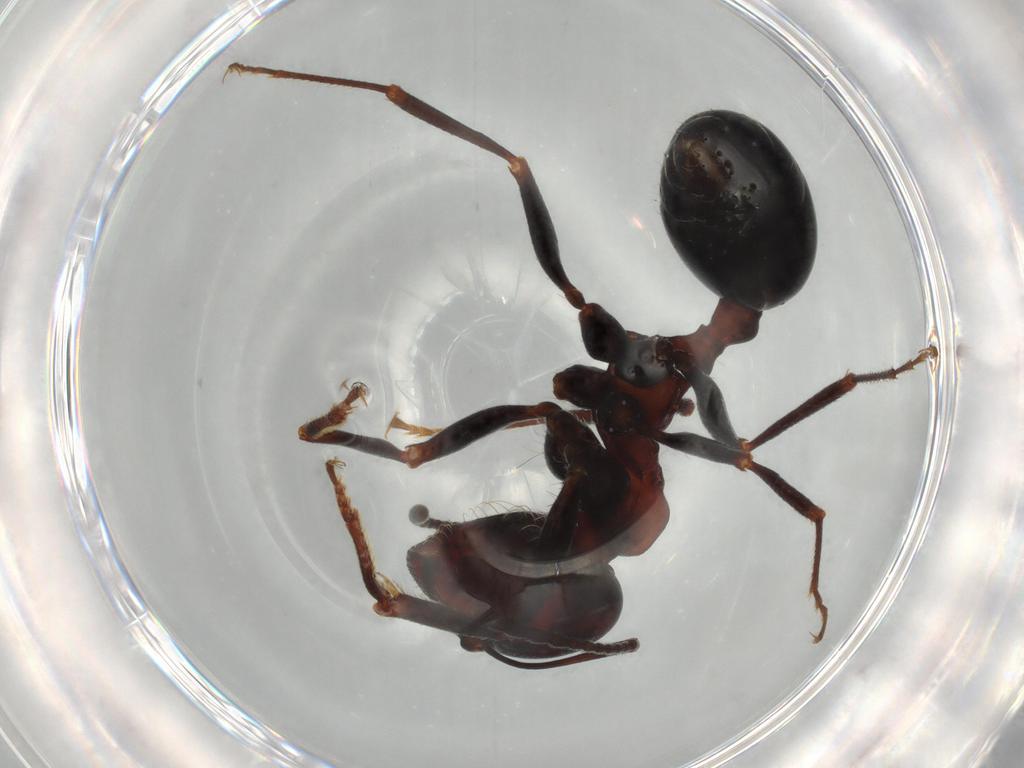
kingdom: Animalia
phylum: Arthropoda
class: Insecta
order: Hymenoptera
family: Formicidae
